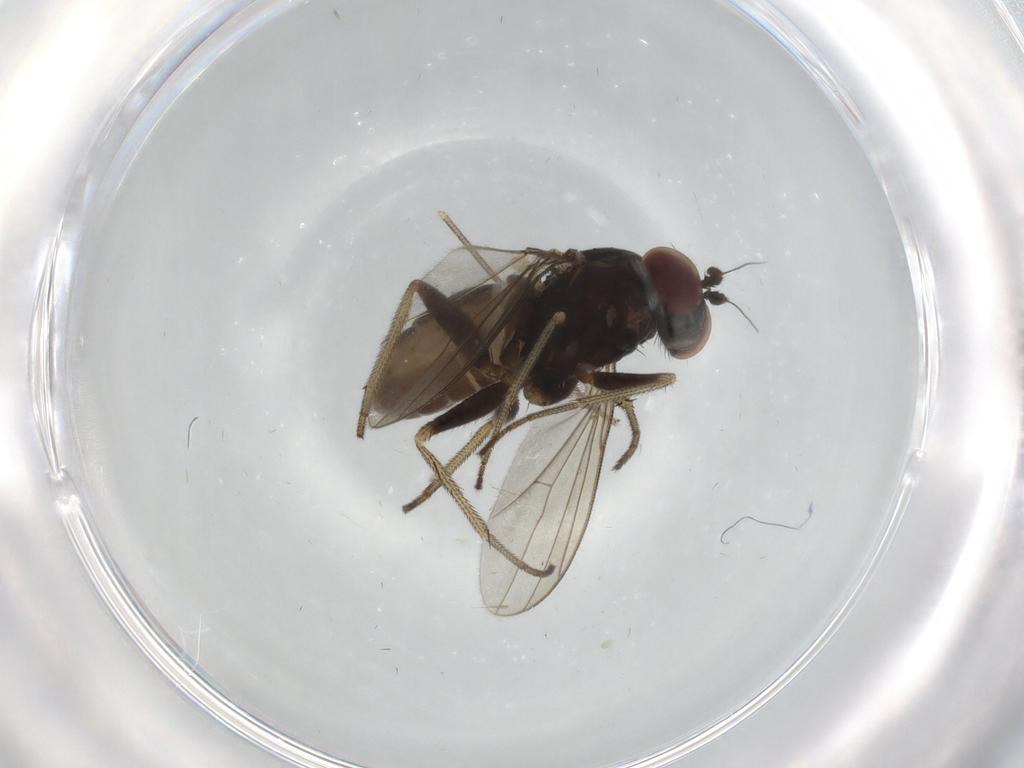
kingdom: Animalia
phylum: Arthropoda
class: Insecta
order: Diptera
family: Dolichopodidae
